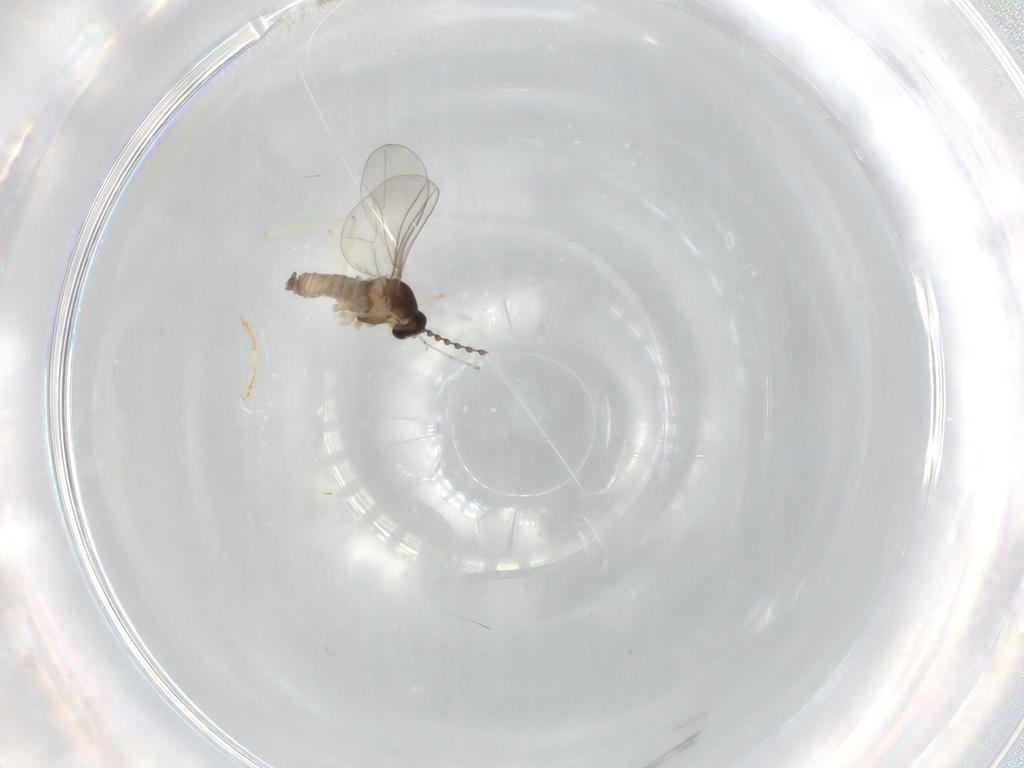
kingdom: Animalia
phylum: Arthropoda
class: Insecta
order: Diptera
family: Cecidomyiidae
